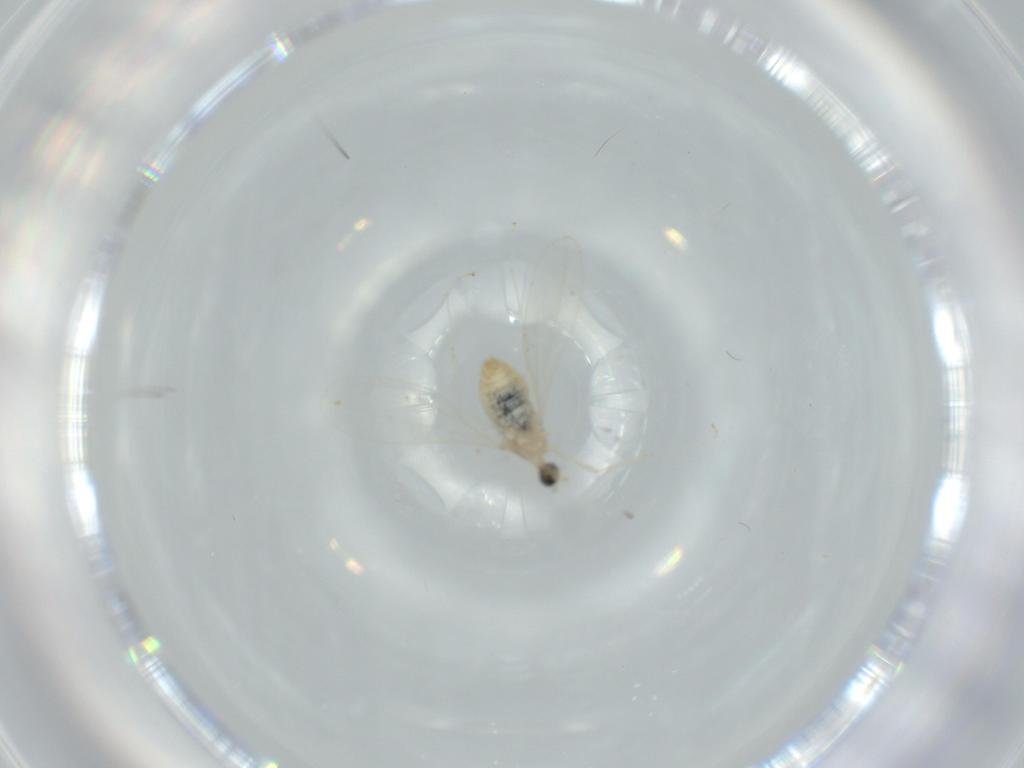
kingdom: Animalia
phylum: Arthropoda
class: Insecta
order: Diptera
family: Cecidomyiidae
